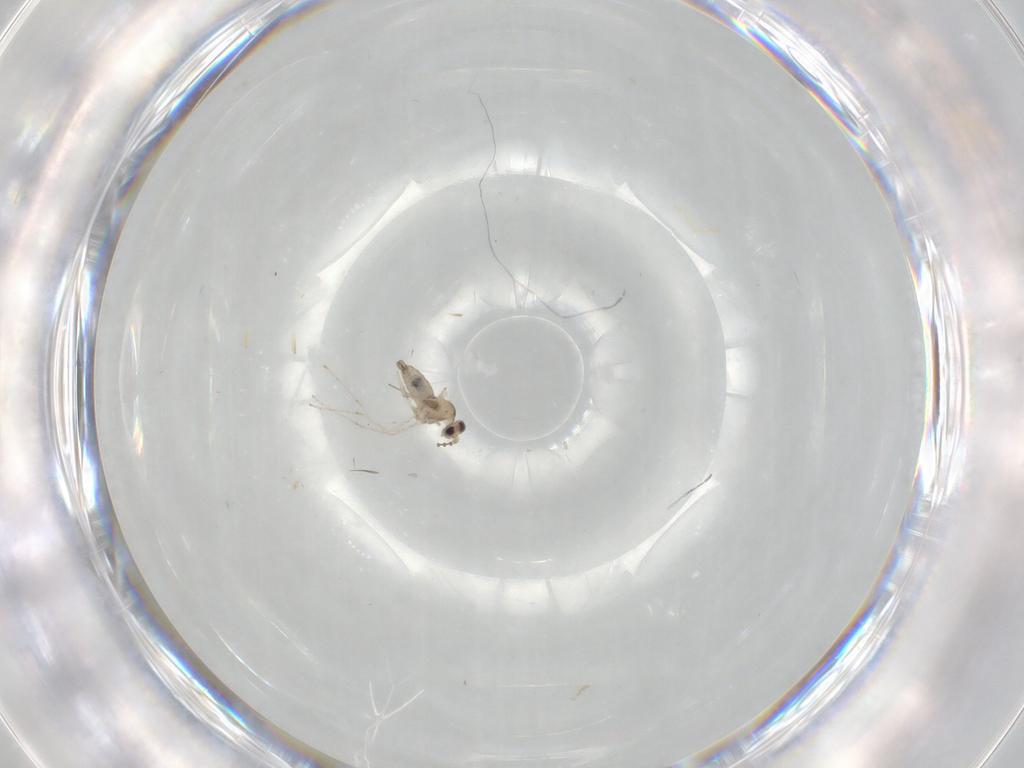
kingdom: Animalia
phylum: Arthropoda
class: Insecta
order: Diptera
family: Cecidomyiidae
